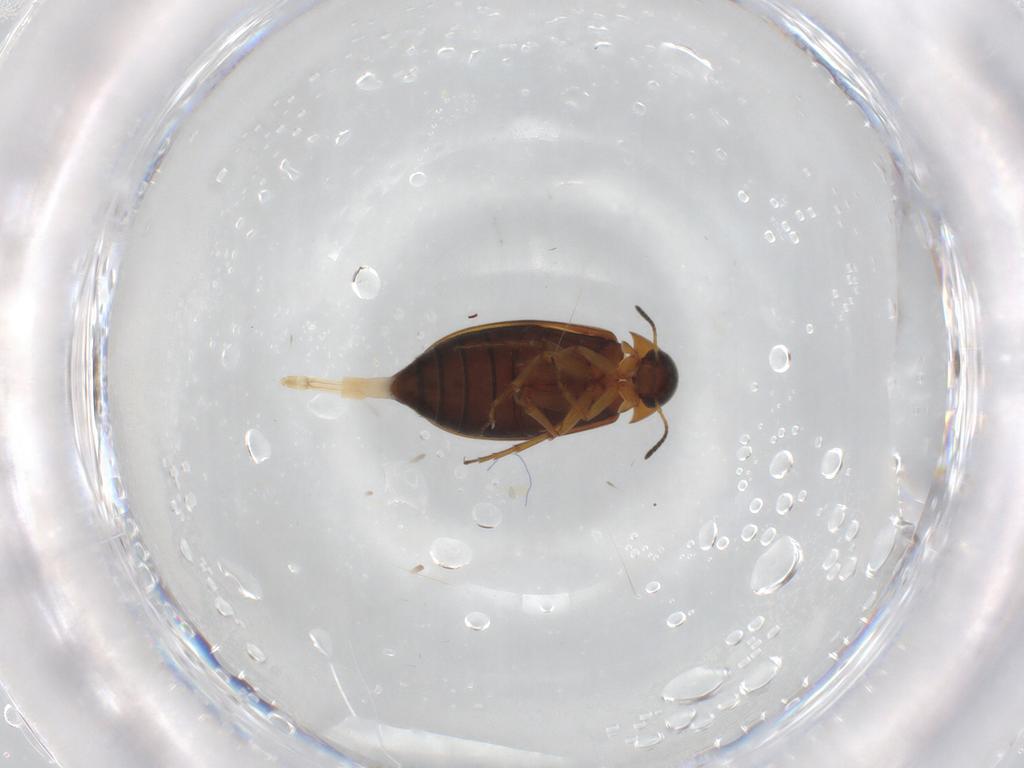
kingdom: Animalia
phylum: Arthropoda
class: Insecta
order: Coleoptera
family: Scraptiidae
